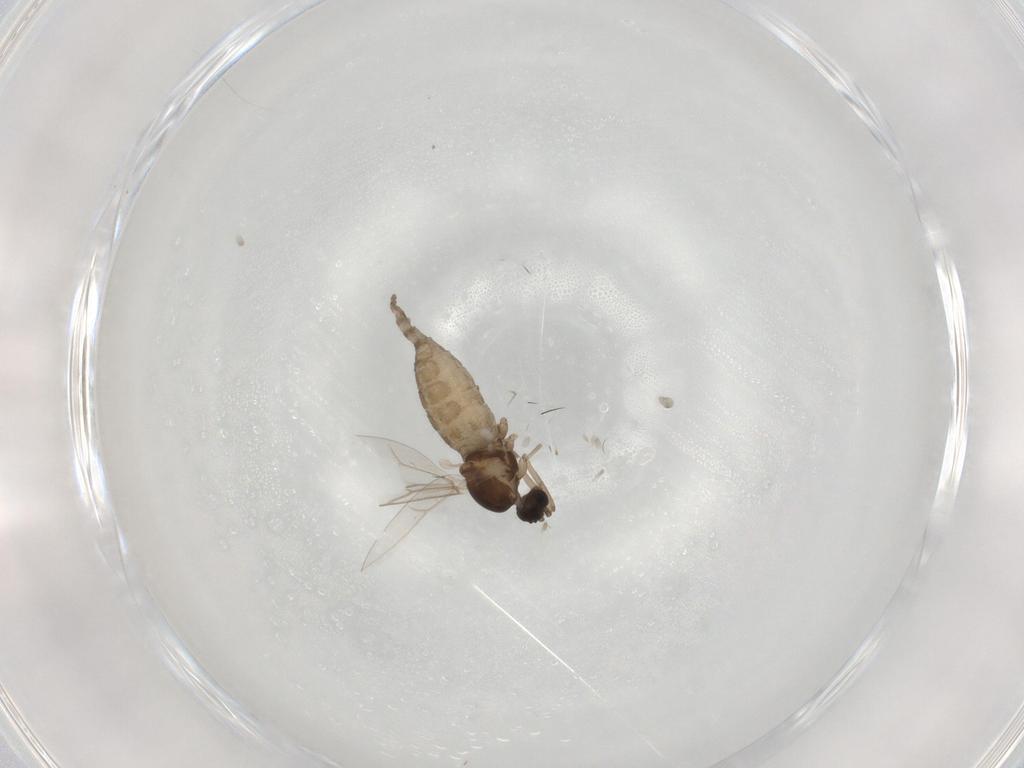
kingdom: Animalia
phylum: Arthropoda
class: Insecta
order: Diptera
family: Cecidomyiidae
